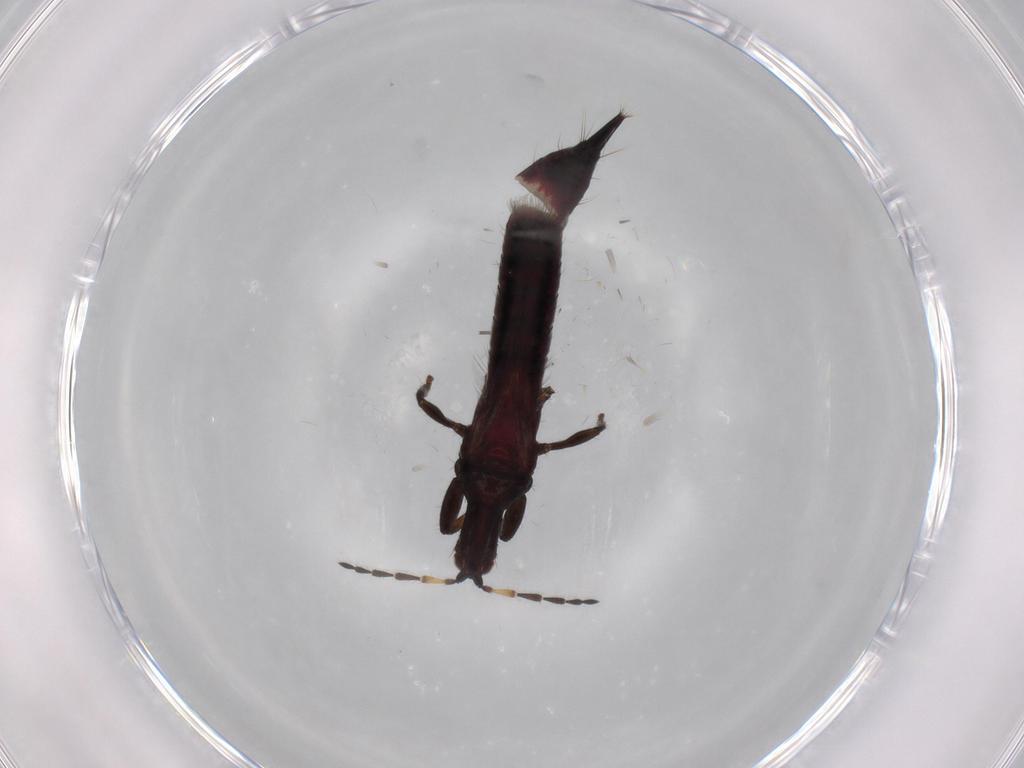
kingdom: Animalia
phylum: Arthropoda
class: Insecta
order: Thysanoptera
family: Phlaeothripidae
